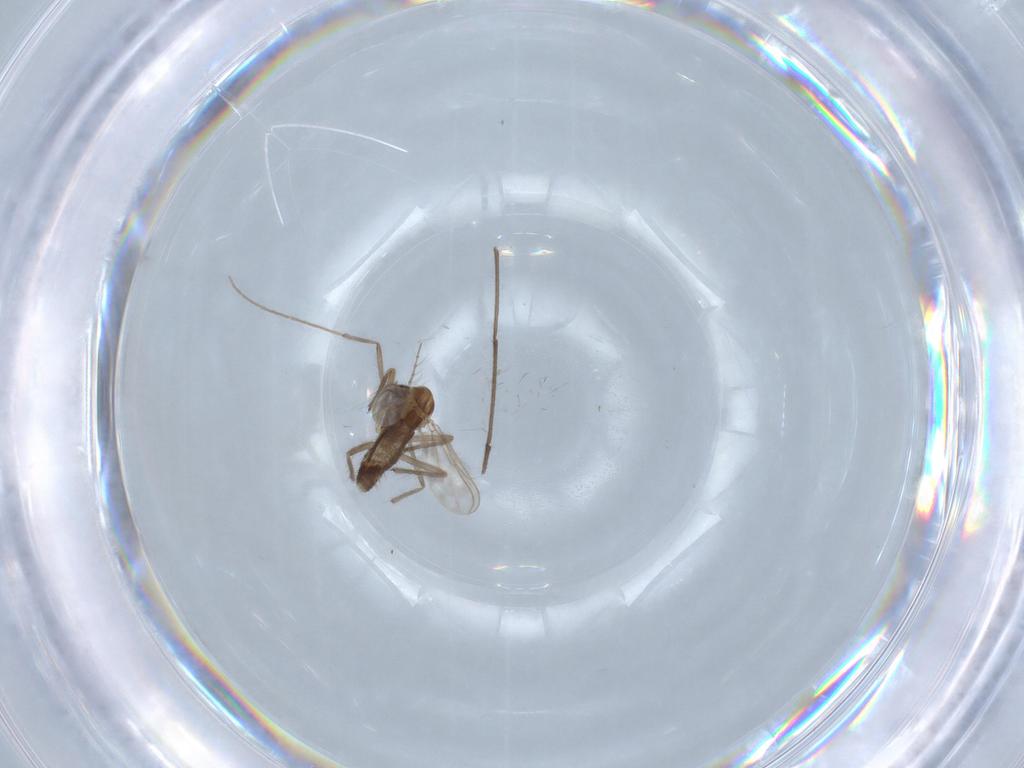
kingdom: Animalia
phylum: Arthropoda
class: Insecta
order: Diptera
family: Chironomidae
